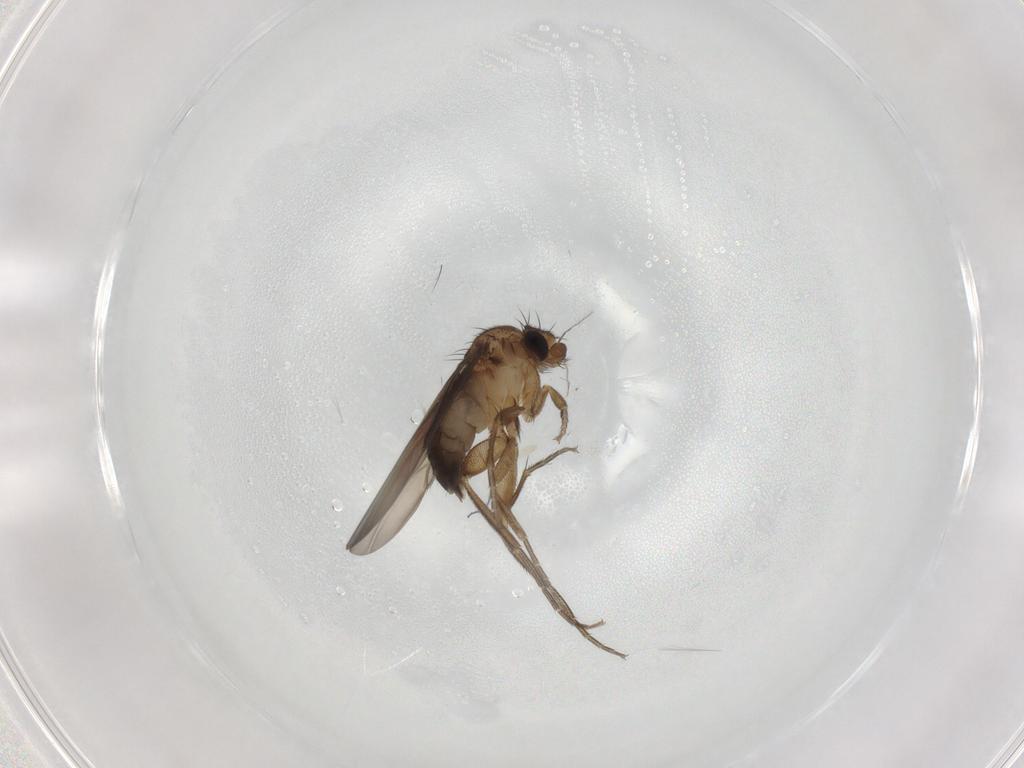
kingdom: Animalia
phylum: Arthropoda
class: Insecta
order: Diptera
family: Phoridae
